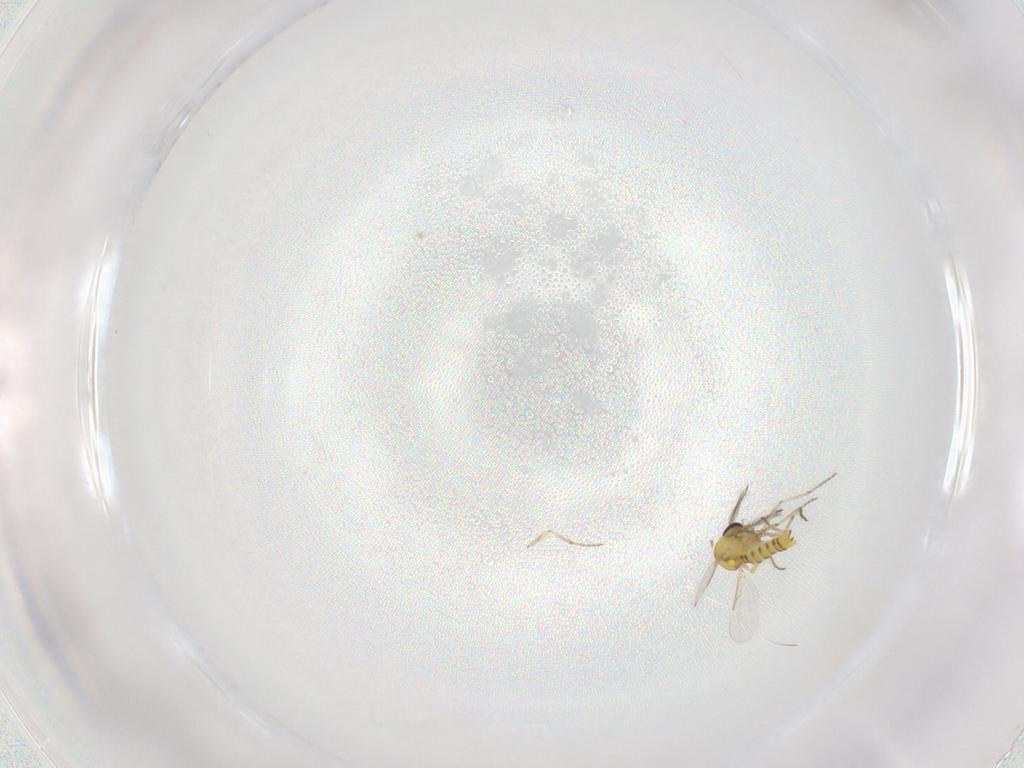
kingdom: Animalia
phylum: Arthropoda
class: Insecta
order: Diptera
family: Ceratopogonidae
